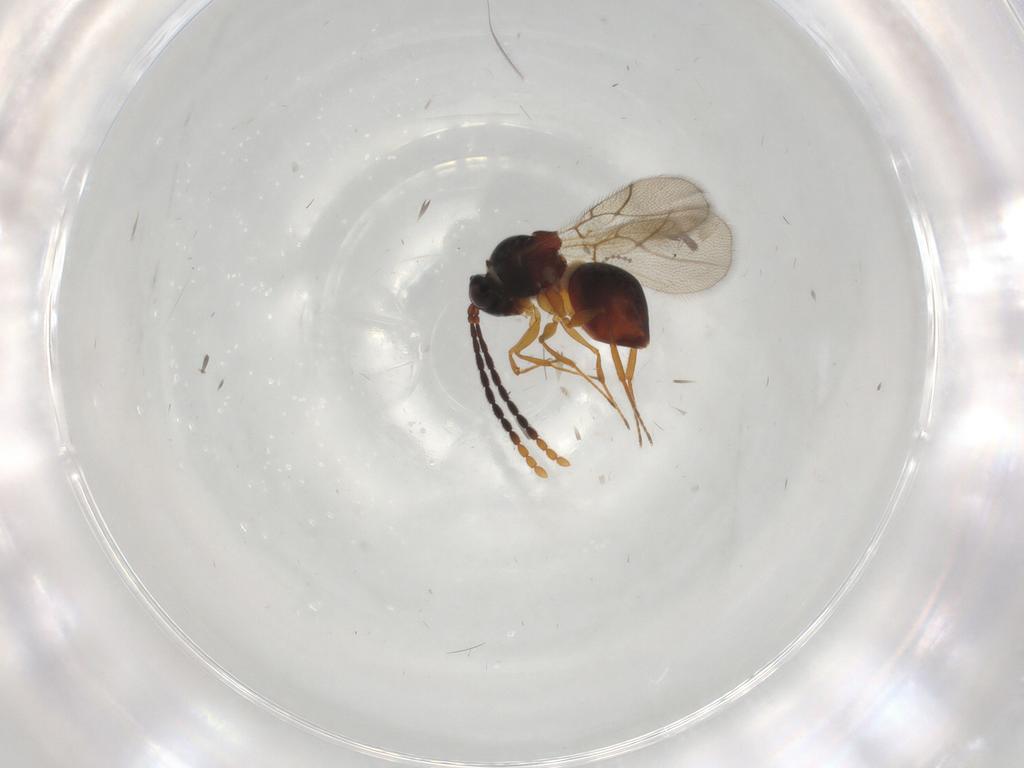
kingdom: Animalia
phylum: Arthropoda
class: Insecta
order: Hymenoptera
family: Figitidae
